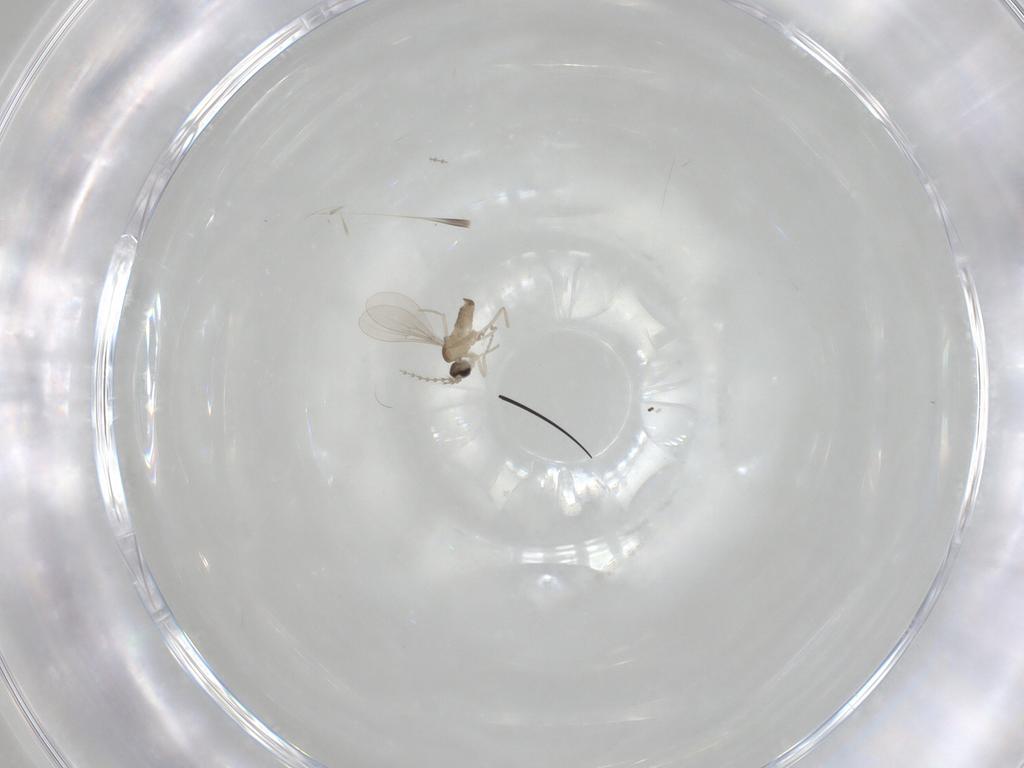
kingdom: Animalia
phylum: Arthropoda
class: Insecta
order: Diptera
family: Cecidomyiidae
